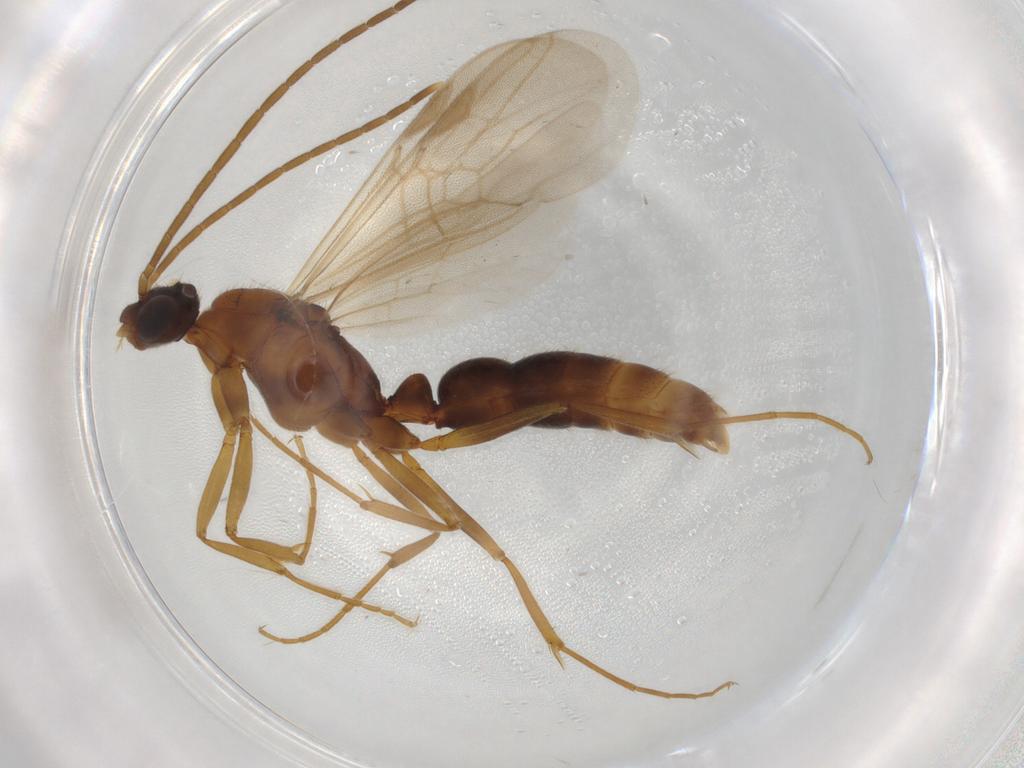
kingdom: Animalia
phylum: Arthropoda
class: Insecta
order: Hymenoptera
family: Formicidae
